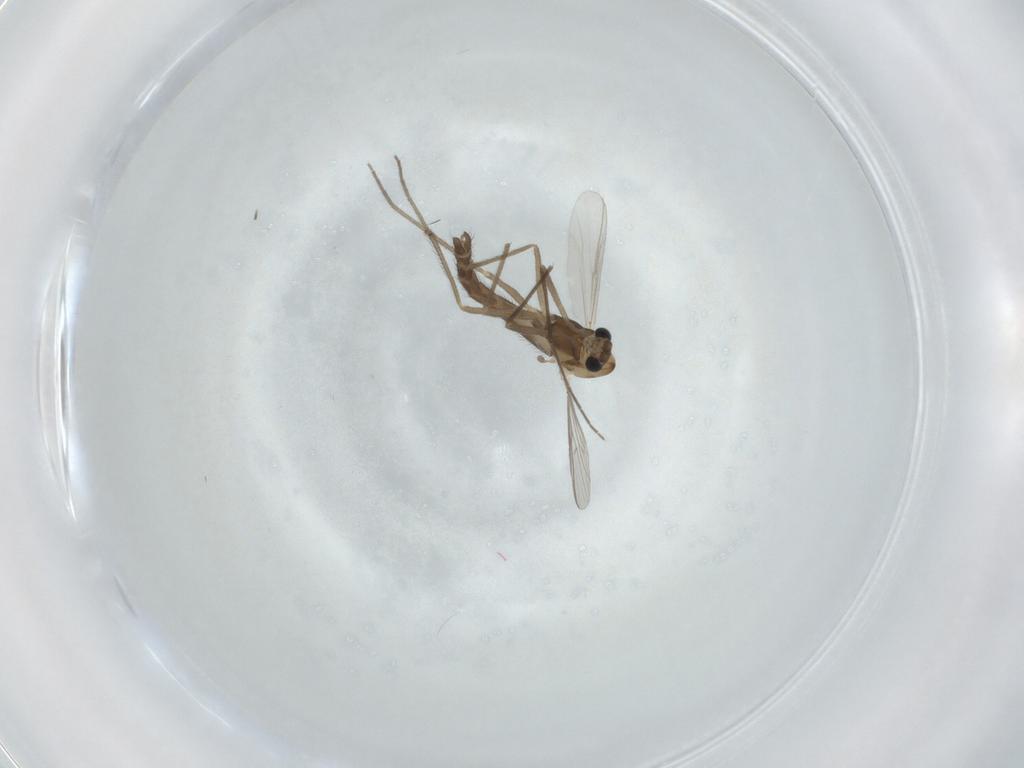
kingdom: Animalia
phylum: Arthropoda
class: Insecta
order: Diptera
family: Chironomidae
